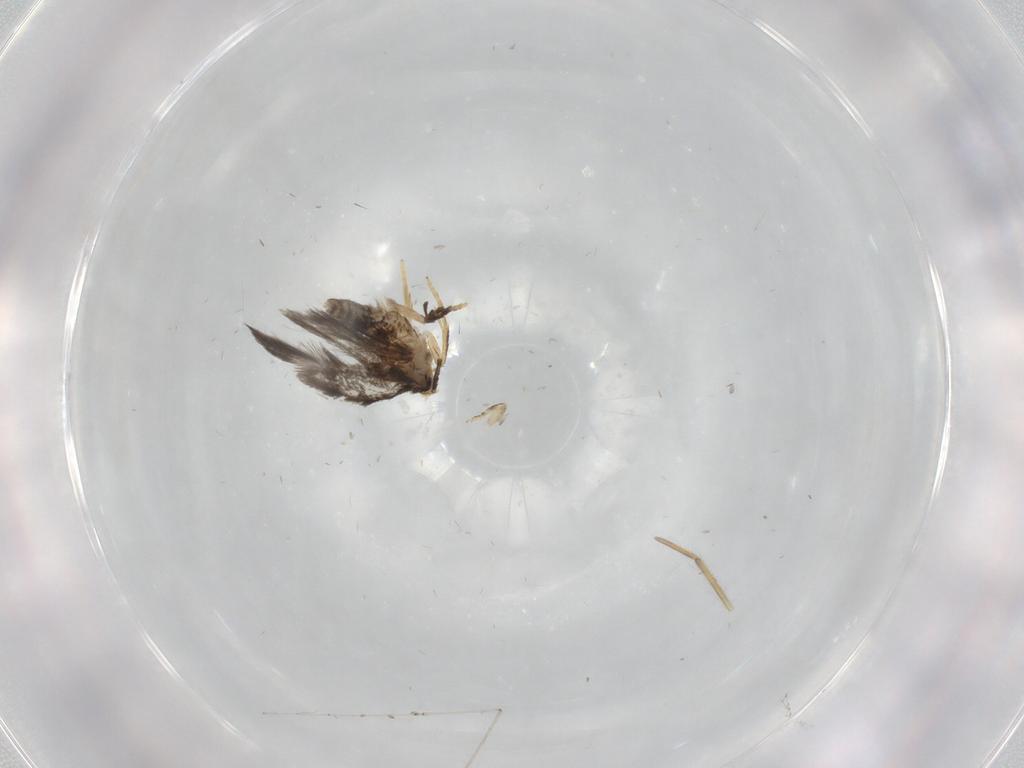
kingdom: Animalia
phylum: Arthropoda
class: Insecta
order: Lepidoptera
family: Nepticulidae
